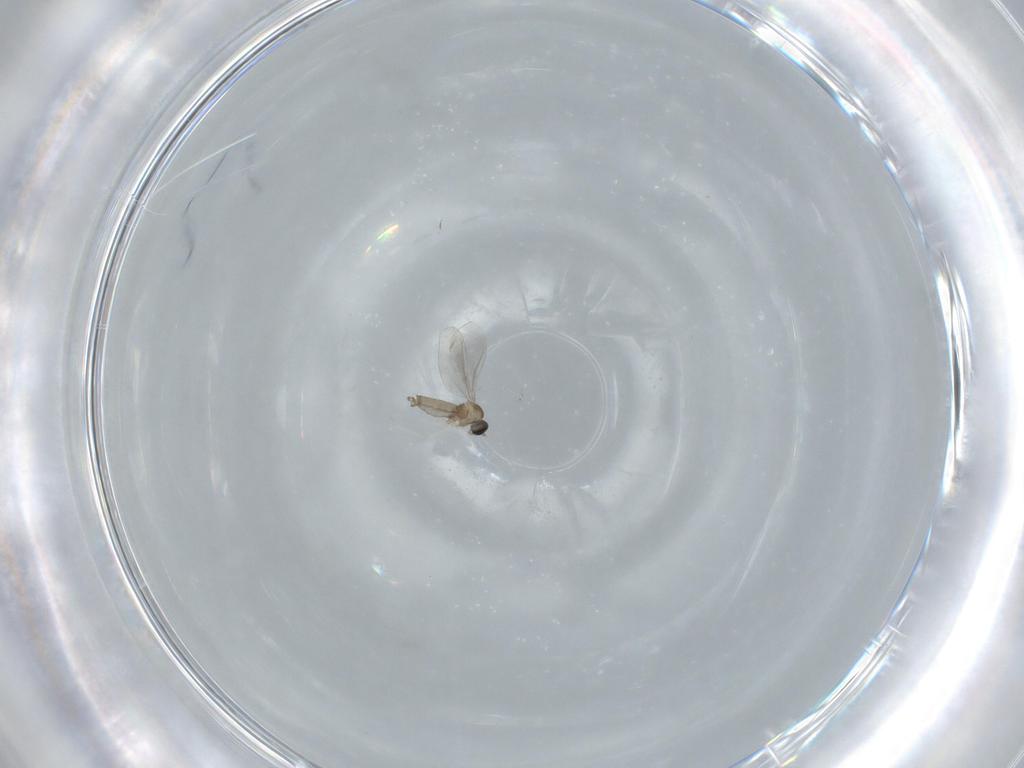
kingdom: Animalia
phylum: Arthropoda
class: Insecta
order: Diptera
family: Cecidomyiidae
